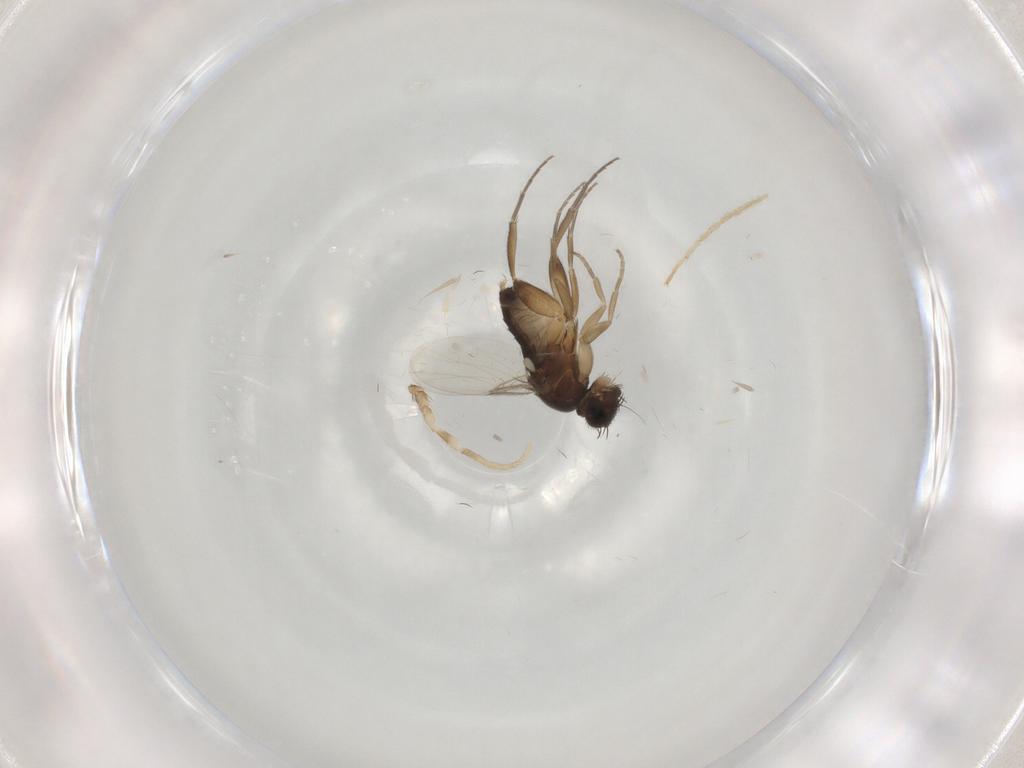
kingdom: Animalia
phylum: Arthropoda
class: Insecta
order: Diptera
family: Phoridae
